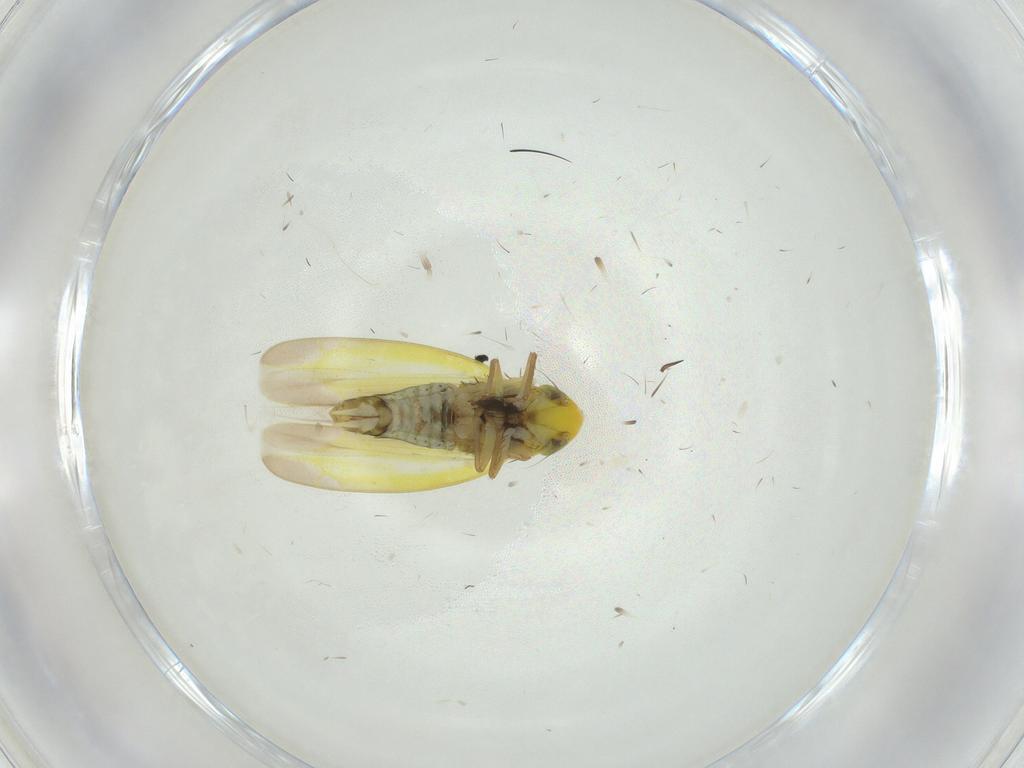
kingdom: Animalia
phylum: Arthropoda
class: Insecta
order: Hemiptera
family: Cicadellidae
